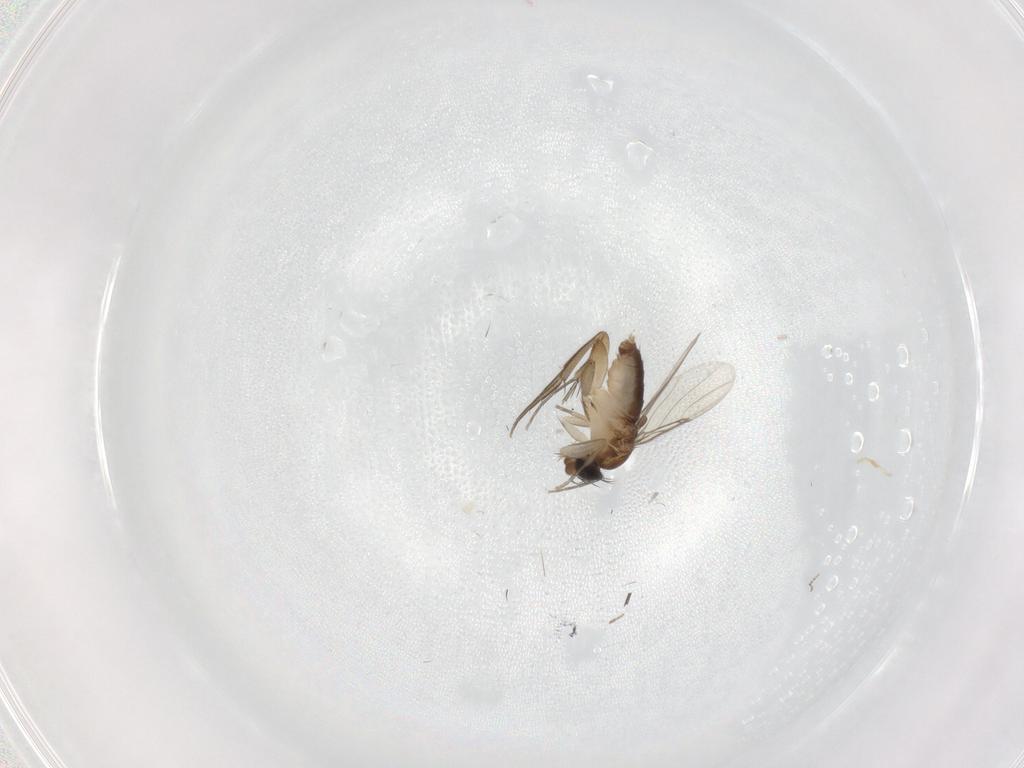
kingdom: Animalia
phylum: Arthropoda
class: Insecta
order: Diptera
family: Phoridae
